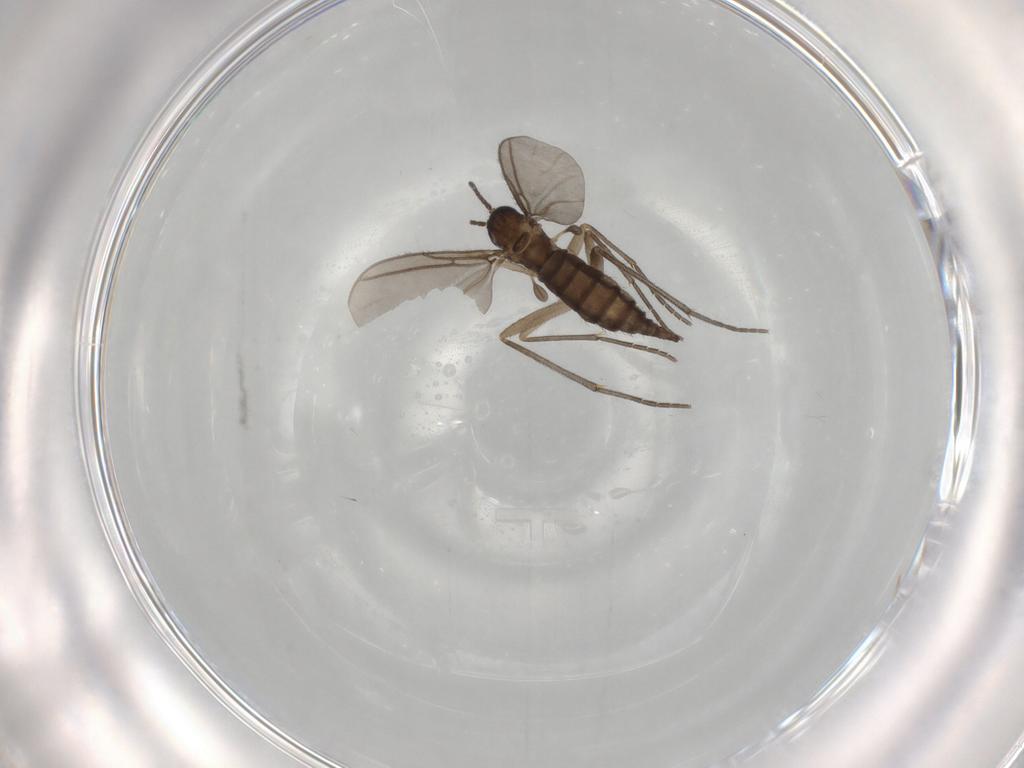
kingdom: Animalia
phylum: Arthropoda
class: Insecta
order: Diptera
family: Sciaridae
